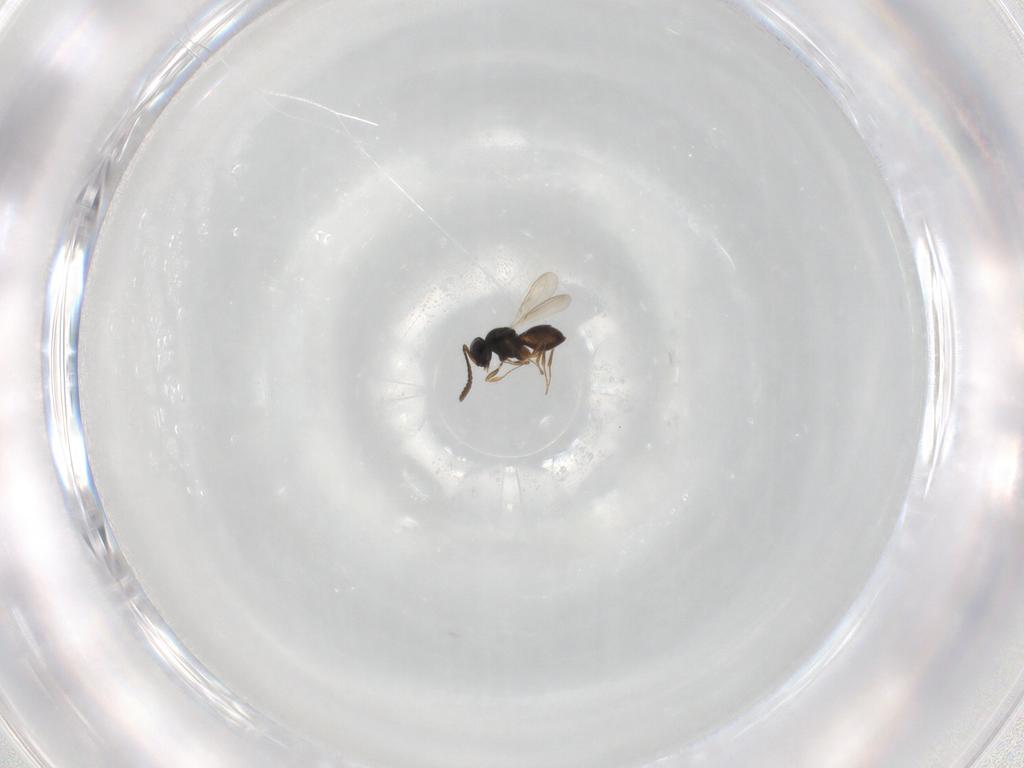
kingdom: Animalia
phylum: Arthropoda
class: Insecta
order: Hymenoptera
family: Scelionidae
